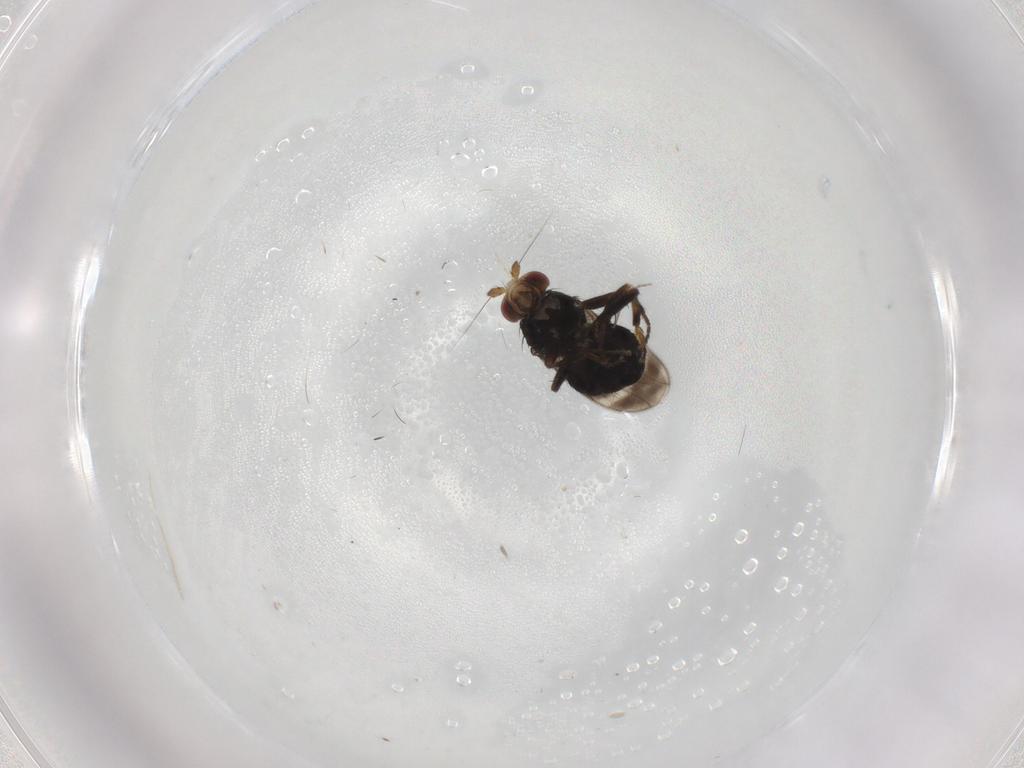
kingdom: Animalia
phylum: Arthropoda
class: Insecta
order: Diptera
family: Sphaeroceridae
